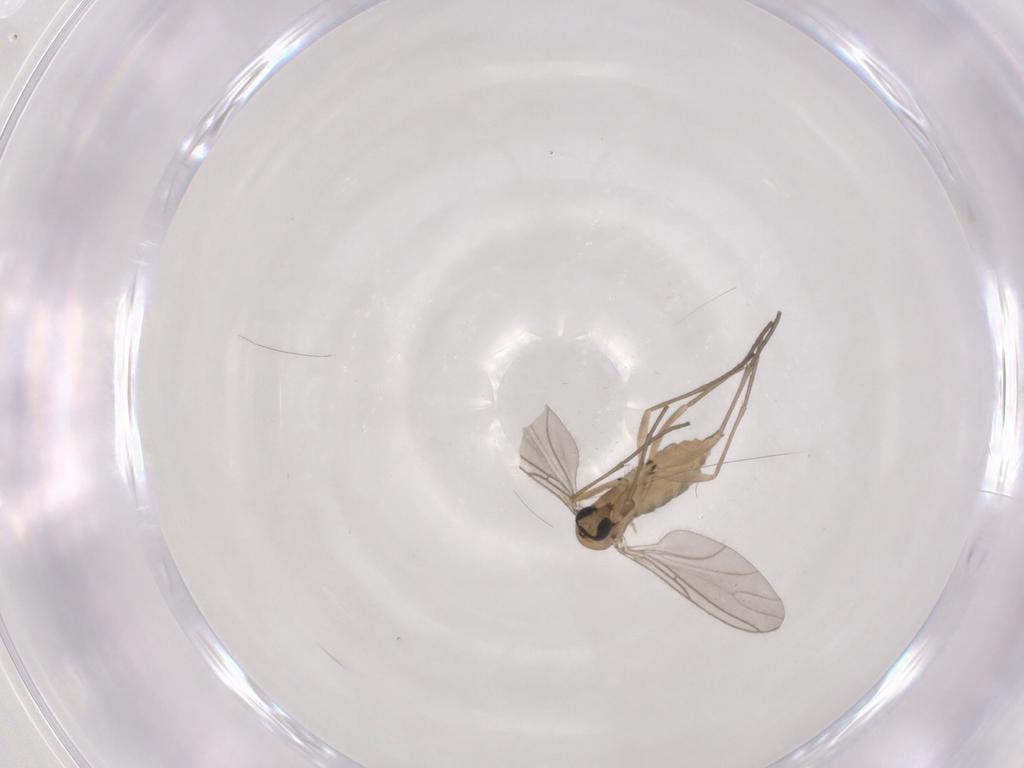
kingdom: Animalia
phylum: Arthropoda
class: Insecta
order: Diptera
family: Sciaridae
